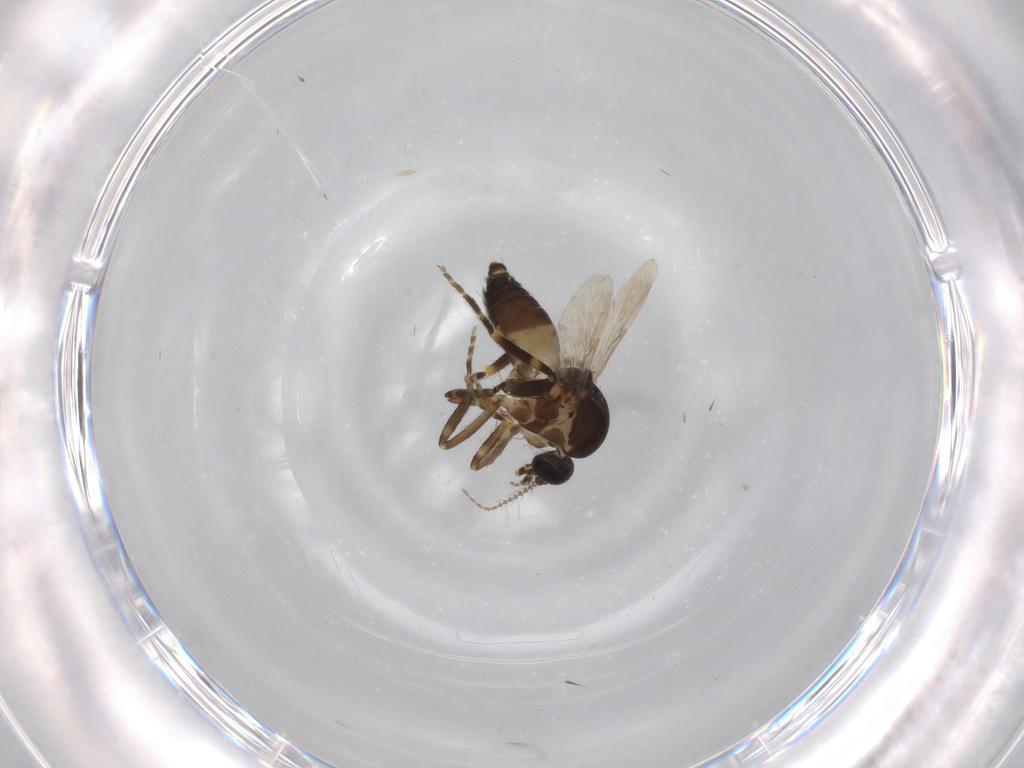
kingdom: Animalia
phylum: Arthropoda
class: Insecta
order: Diptera
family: Ceratopogonidae
